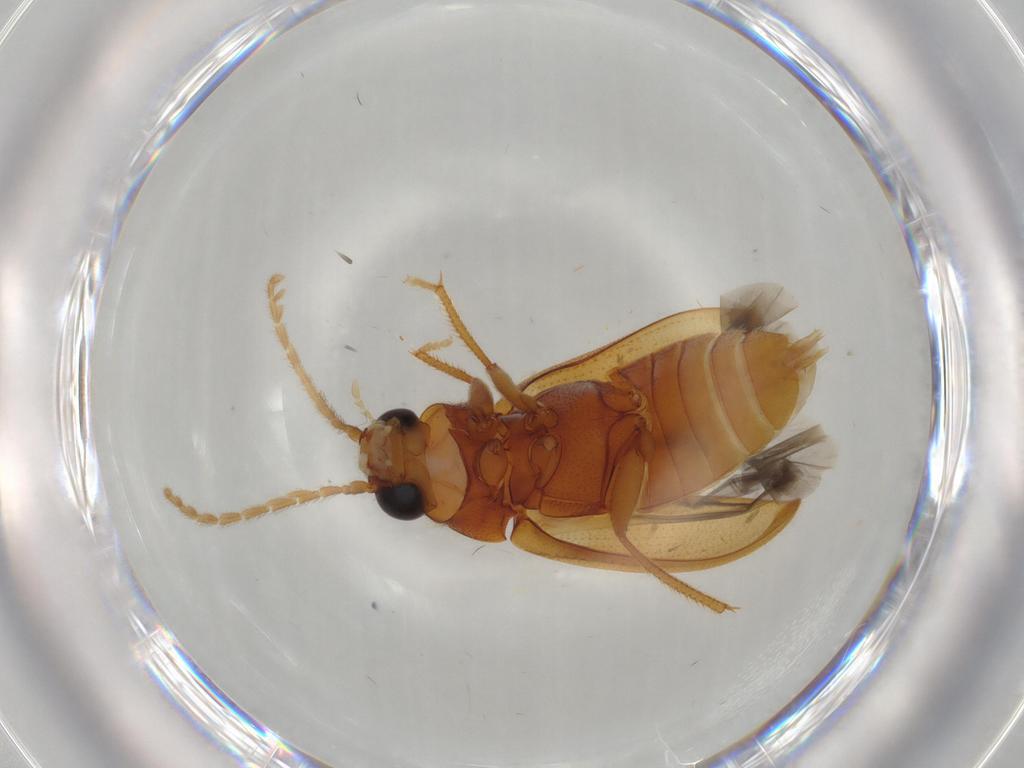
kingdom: Animalia
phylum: Arthropoda
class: Insecta
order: Coleoptera
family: Ptilodactylidae
